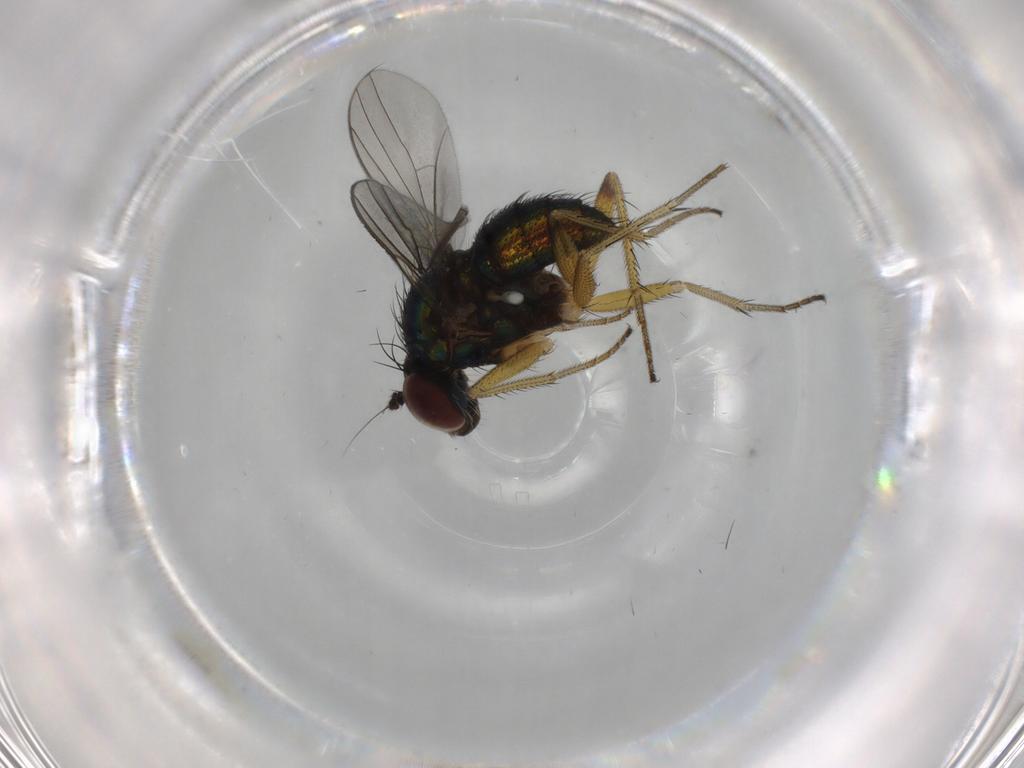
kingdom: Animalia
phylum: Arthropoda
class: Insecta
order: Diptera
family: Dolichopodidae
